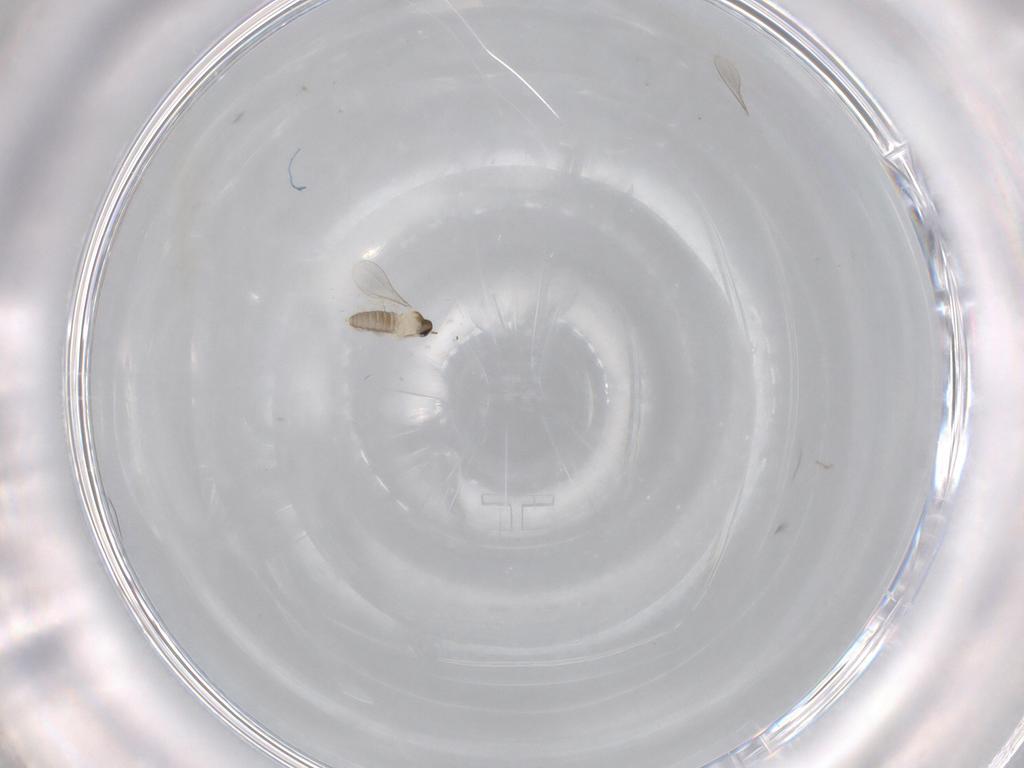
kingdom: Animalia
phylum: Arthropoda
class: Insecta
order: Diptera
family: Cecidomyiidae
